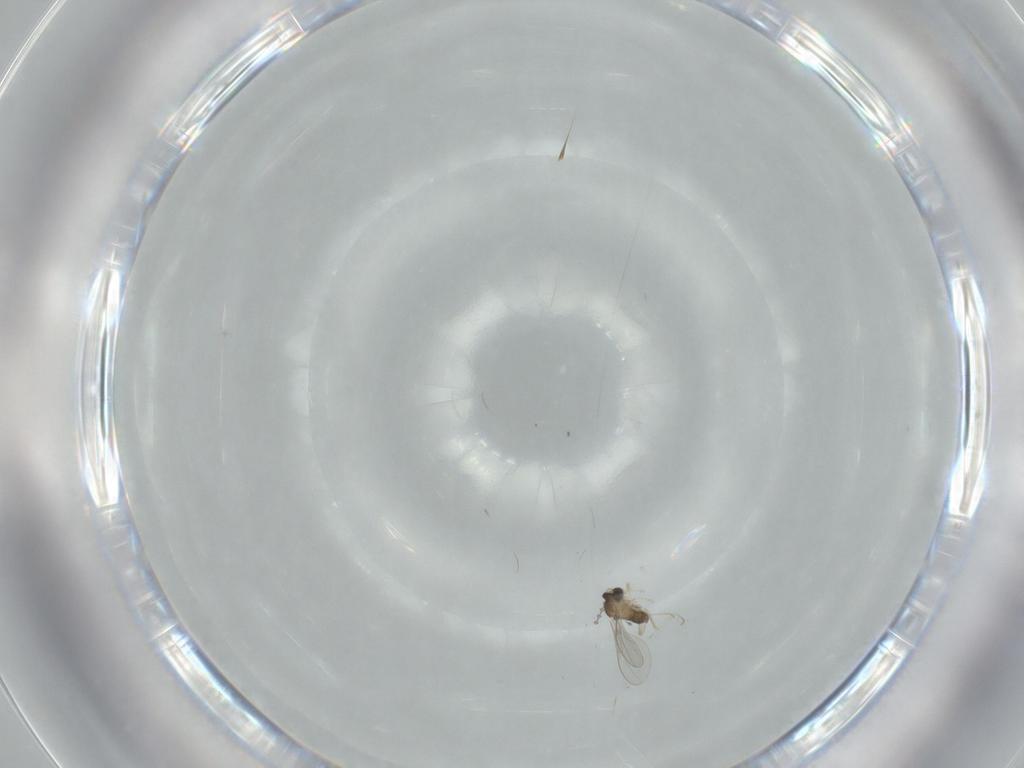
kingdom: Animalia
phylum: Arthropoda
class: Insecta
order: Diptera
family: Cecidomyiidae
